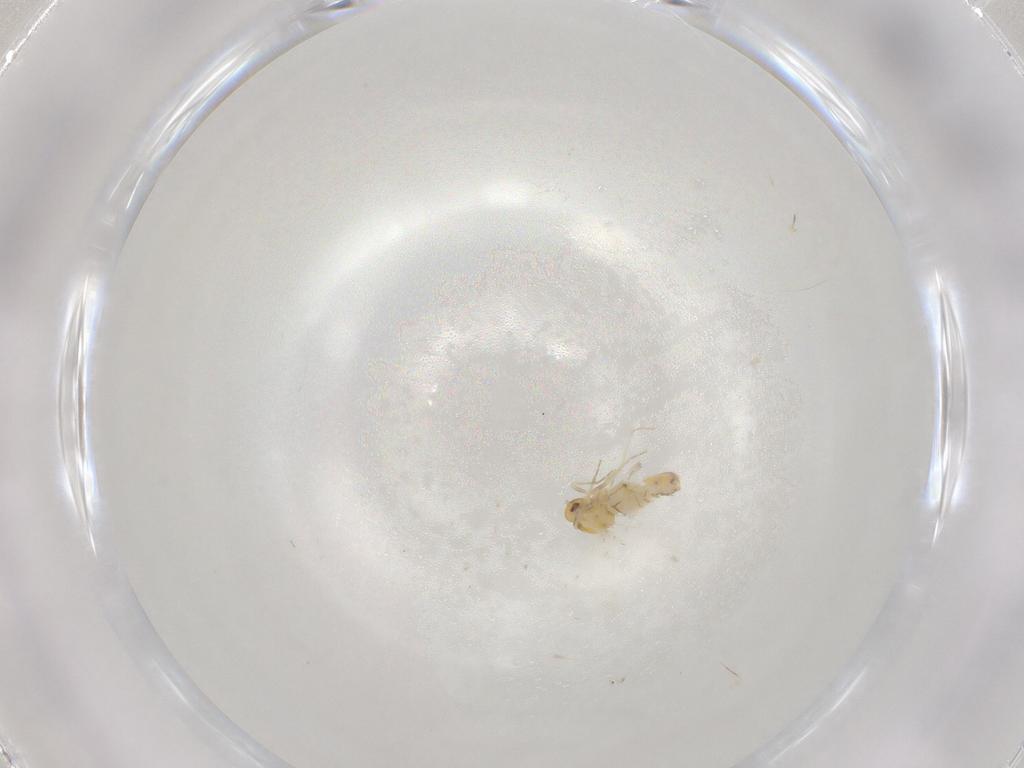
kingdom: Animalia
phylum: Arthropoda
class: Insecta
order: Hemiptera
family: Aleyrodidae
